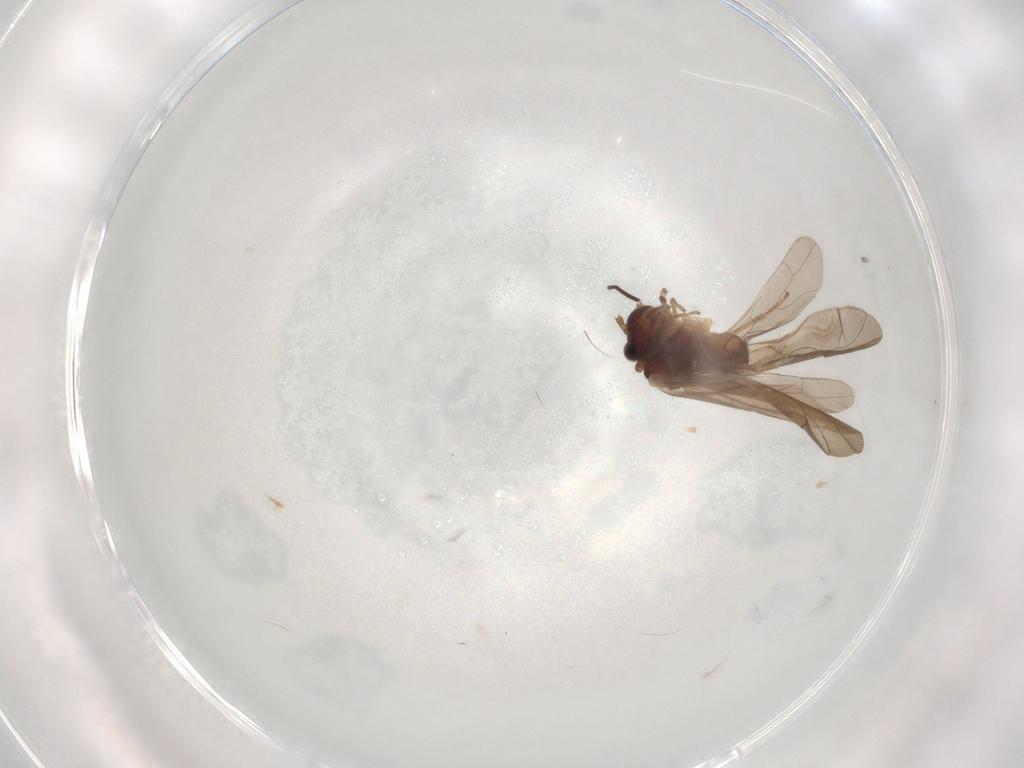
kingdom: Animalia
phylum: Arthropoda
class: Insecta
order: Psocodea
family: Caeciliusidae
